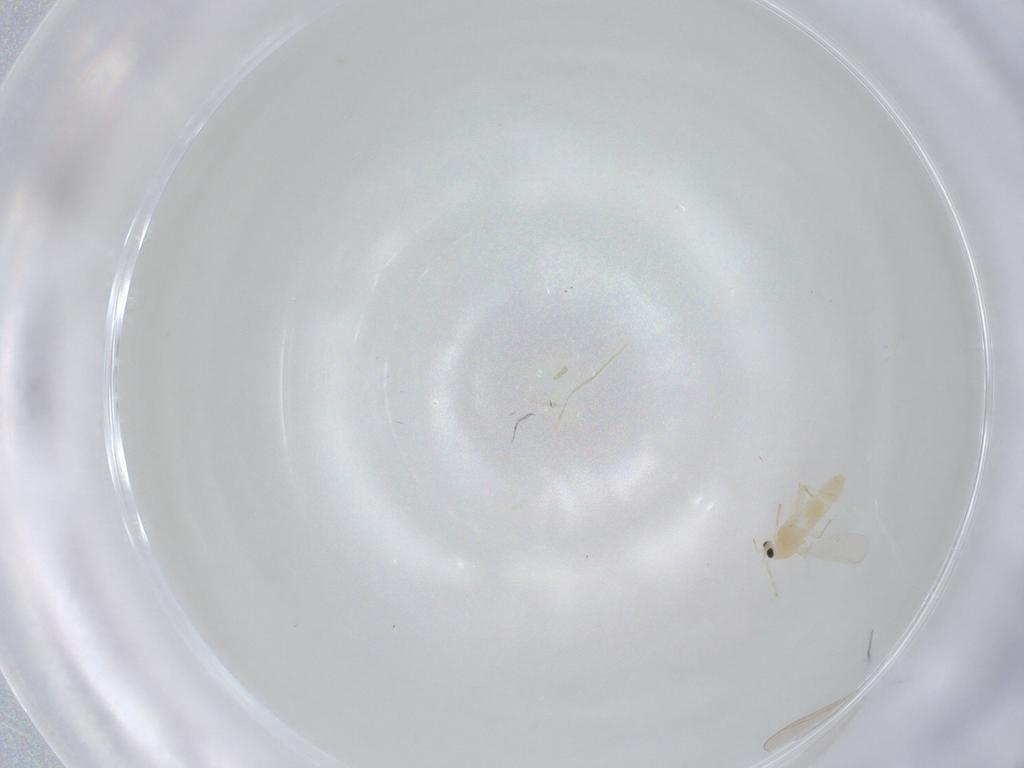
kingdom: Animalia
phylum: Arthropoda
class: Insecta
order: Diptera
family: Chironomidae
